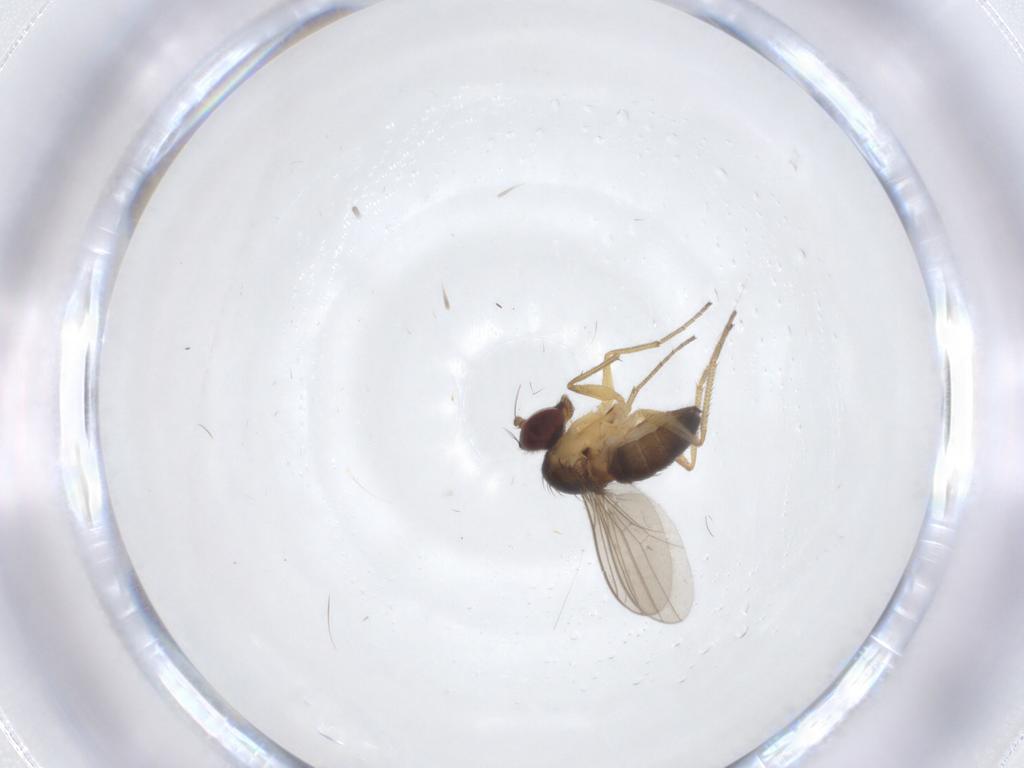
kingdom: Animalia
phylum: Arthropoda
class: Insecta
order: Diptera
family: Dolichopodidae
